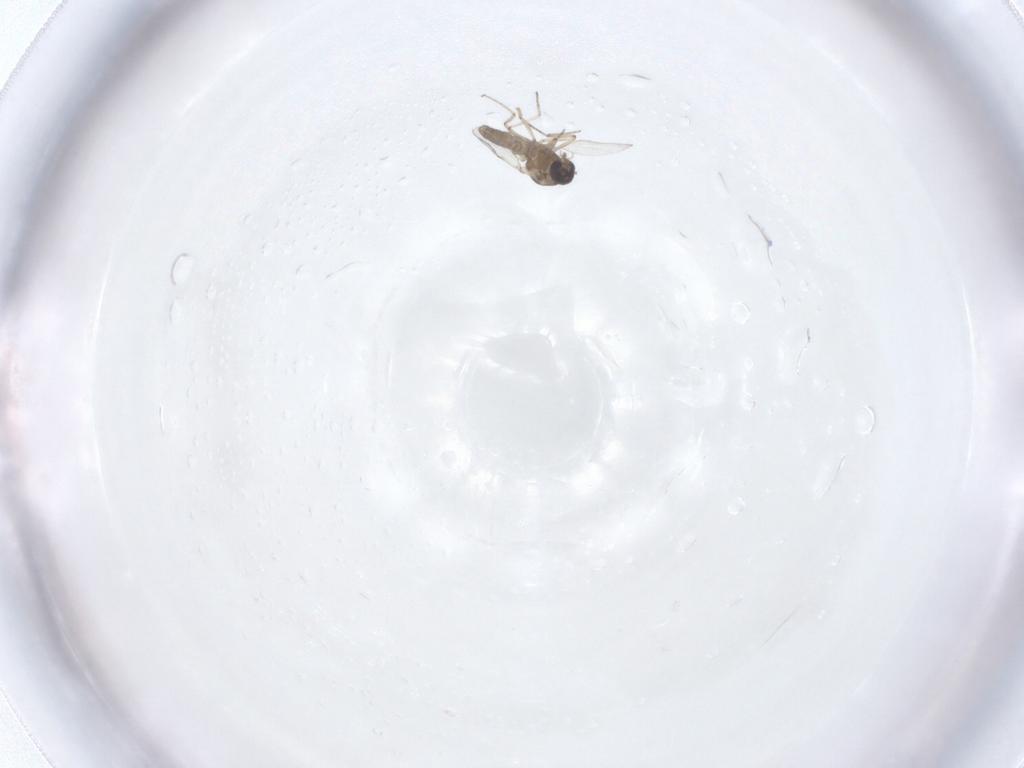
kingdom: Animalia
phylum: Arthropoda
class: Insecta
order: Diptera
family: Ceratopogonidae
